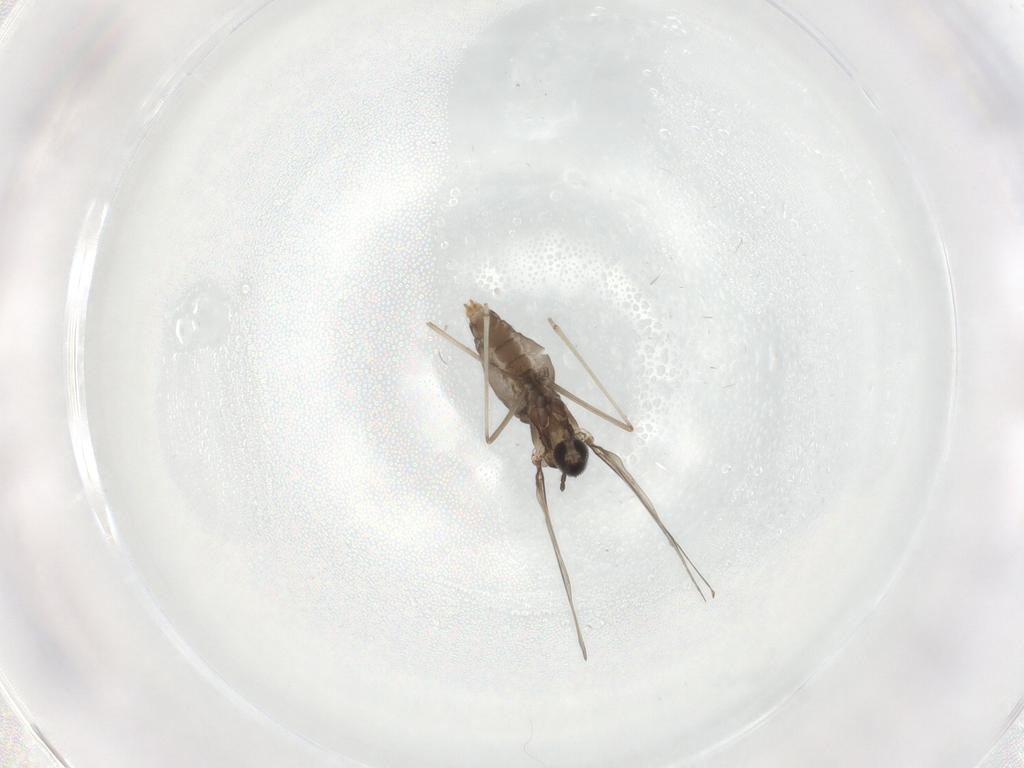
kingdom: Animalia
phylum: Arthropoda
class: Insecta
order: Diptera
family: Cecidomyiidae
